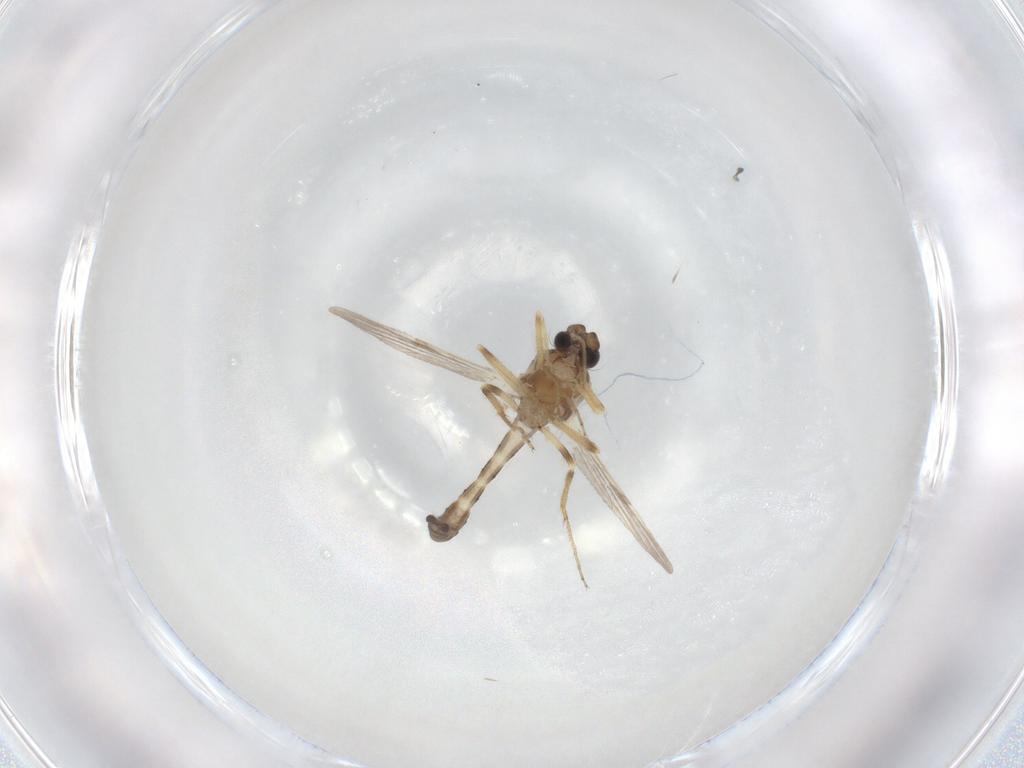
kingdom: Animalia
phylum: Arthropoda
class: Insecta
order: Diptera
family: Ceratopogonidae
